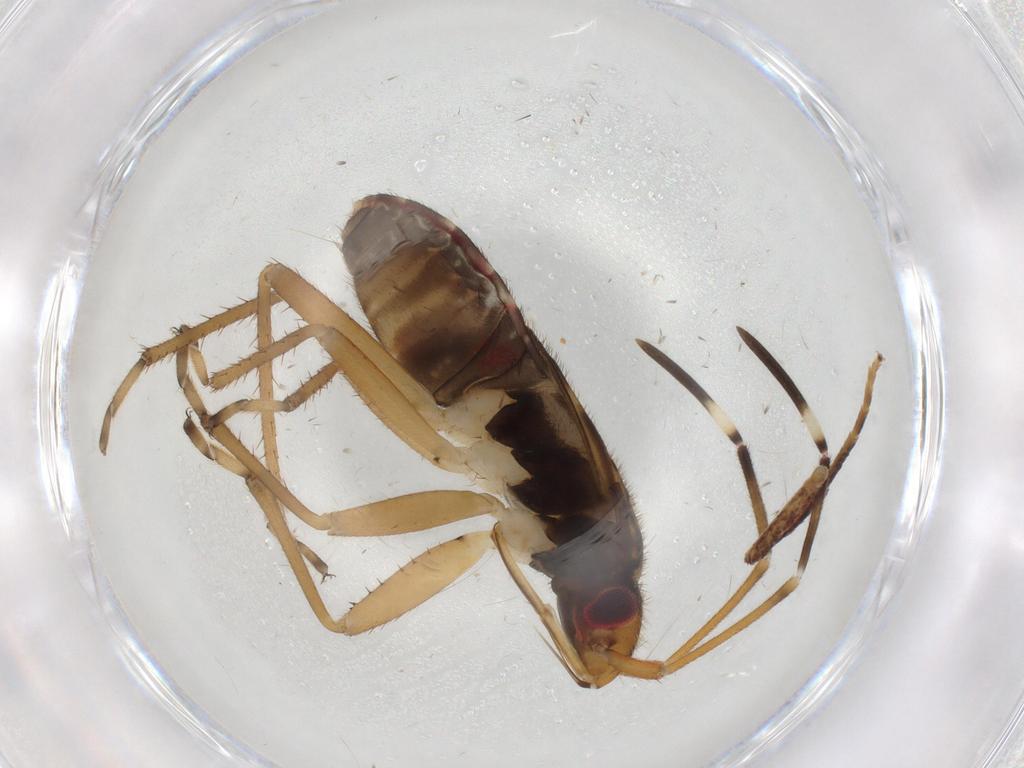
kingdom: Animalia
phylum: Arthropoda
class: Insecta
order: Hemiptera
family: Rhyparochromidae
